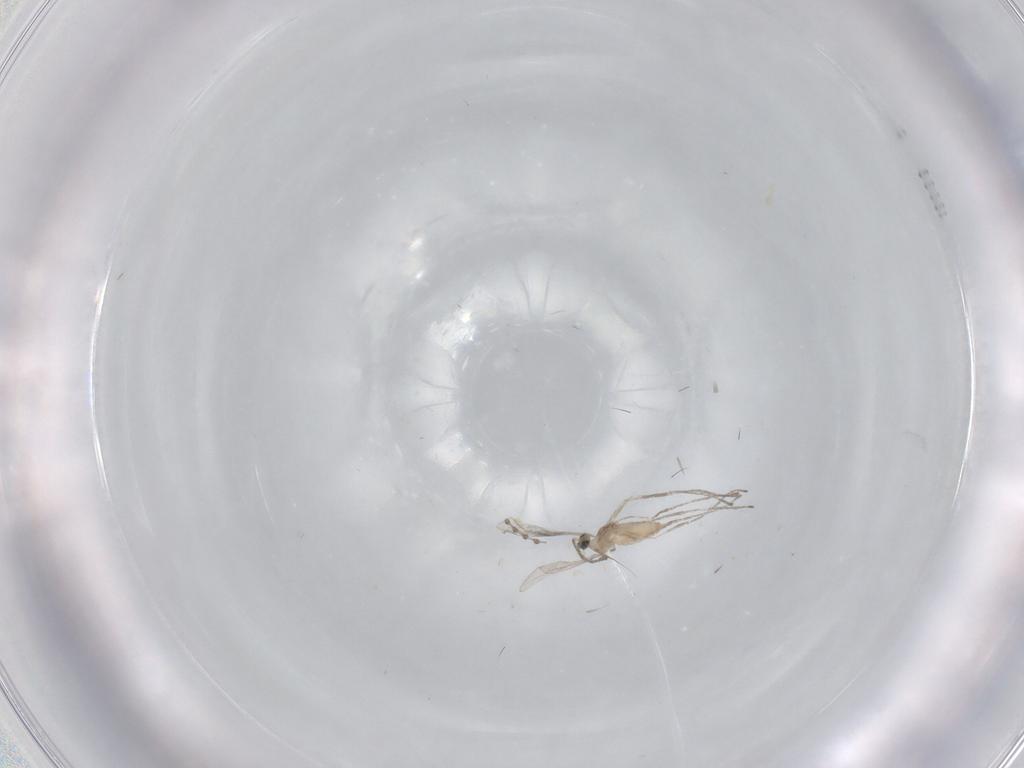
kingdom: Animalia
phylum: Arthropoda
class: Insecta
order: Diptera
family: Cecidomyiidae
